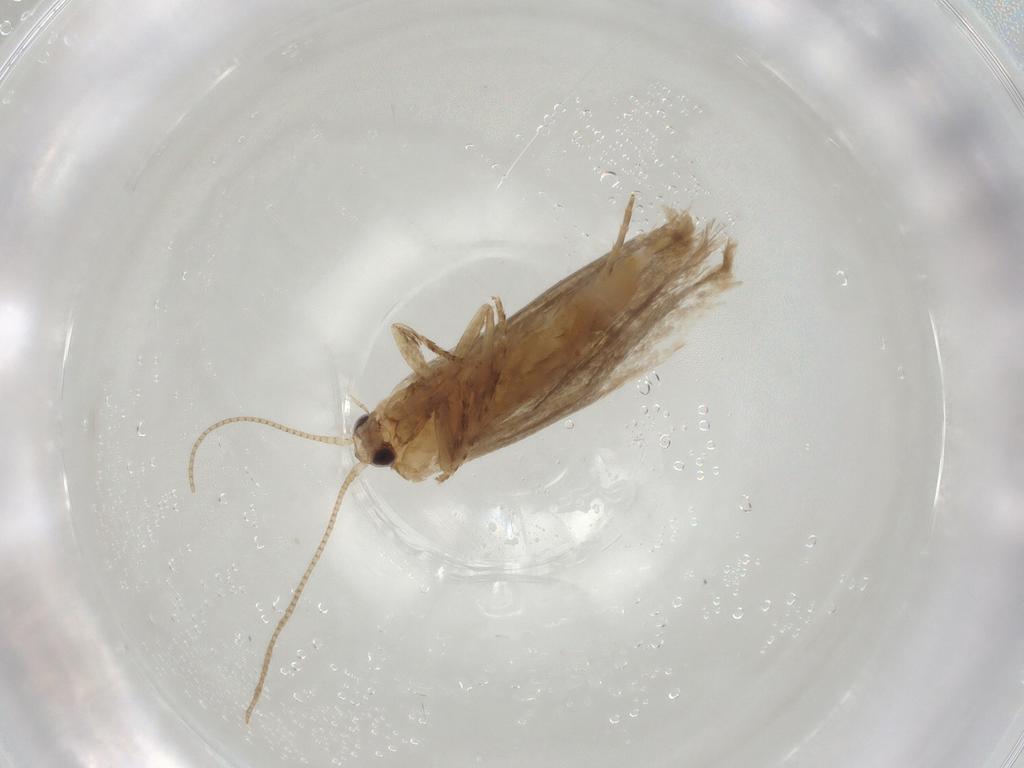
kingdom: Animalia
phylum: Arthropoda
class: Insecta
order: Lepidoptera
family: Nepticulidae
